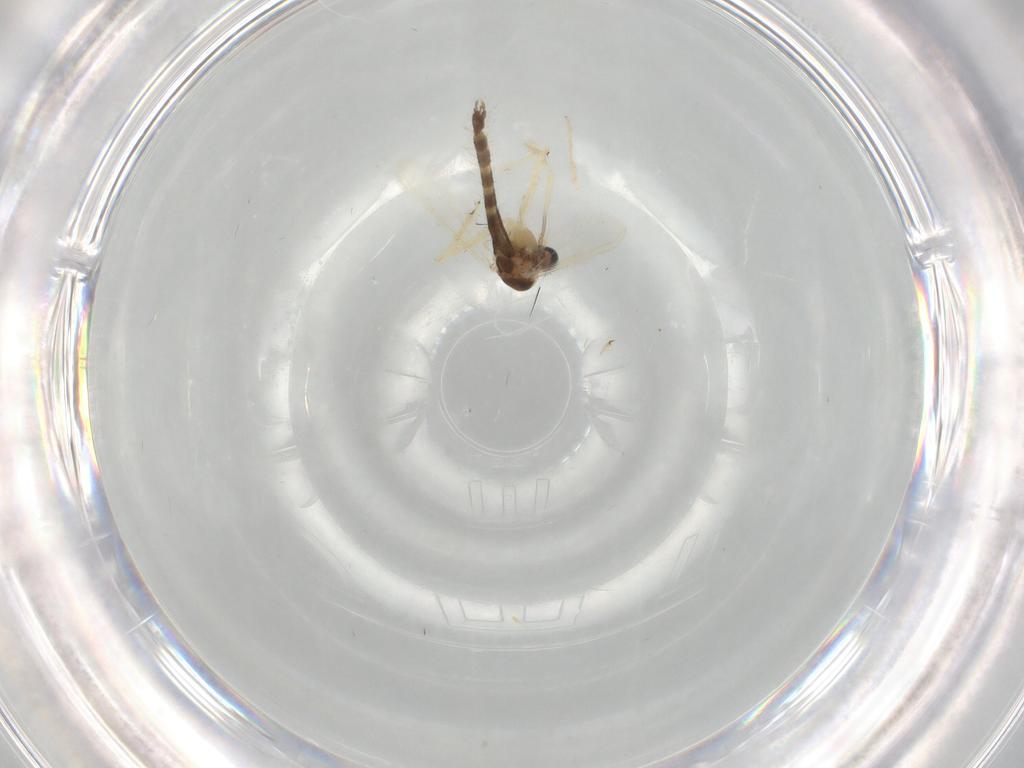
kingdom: Animalia
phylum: Arthropoda
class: Insecta
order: Diptera
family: Chironomidae
